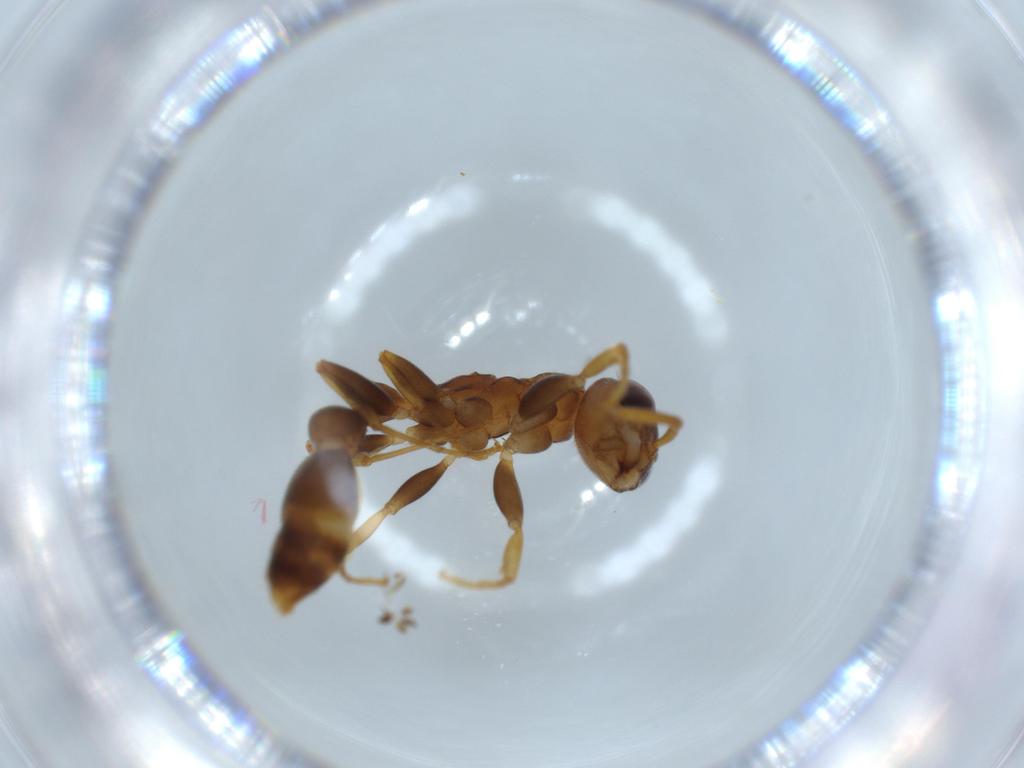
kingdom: Animalia
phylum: Arthropoda
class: Insecta
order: Hymenoptera
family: Formicidae
